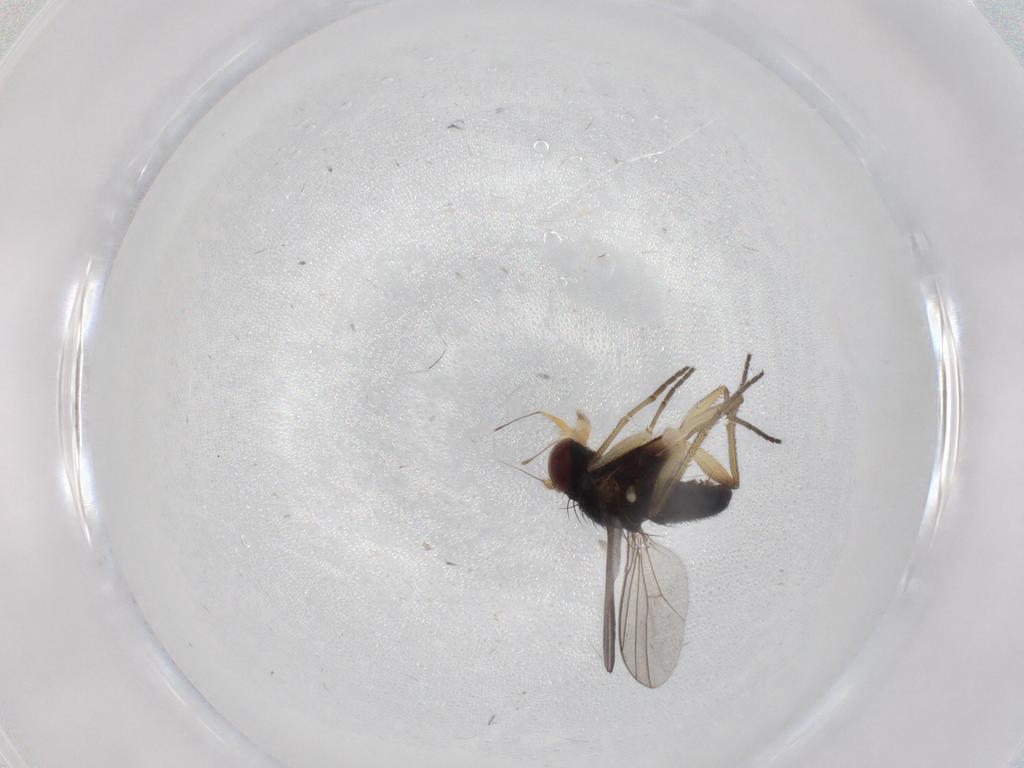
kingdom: Animalia
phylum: Arthropoda
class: Insecta
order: Diptera
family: Dolichopodidae
